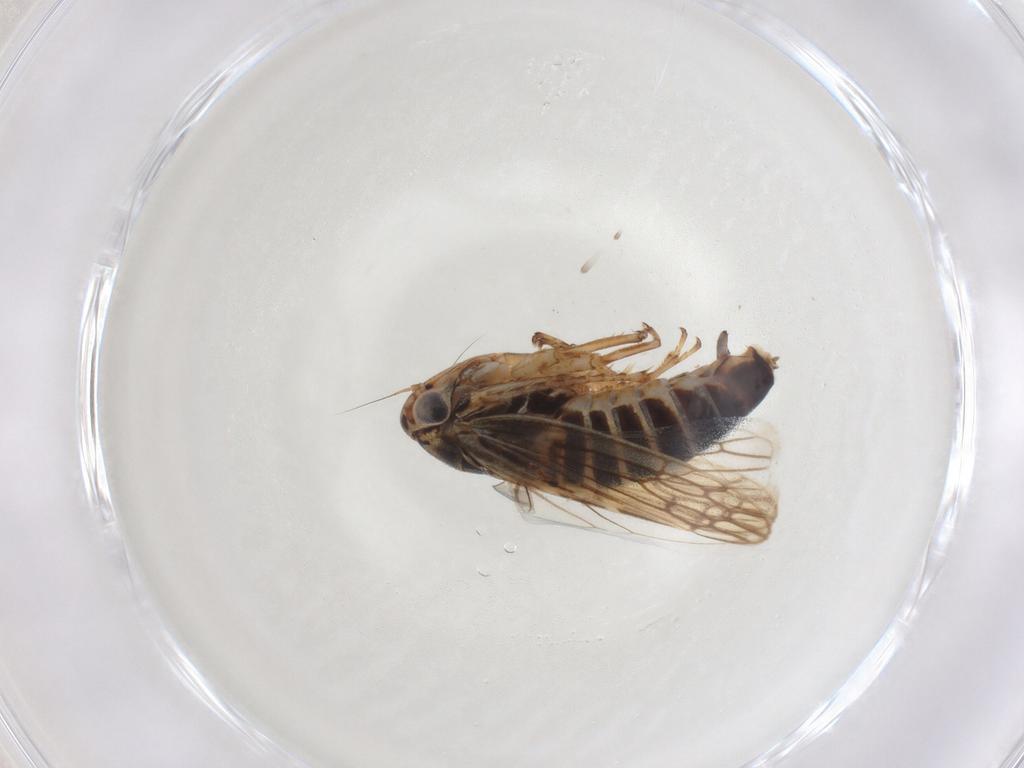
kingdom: Animalia
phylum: Arthropoda
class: Insecta
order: Hemiptera
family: Cicadellidae
